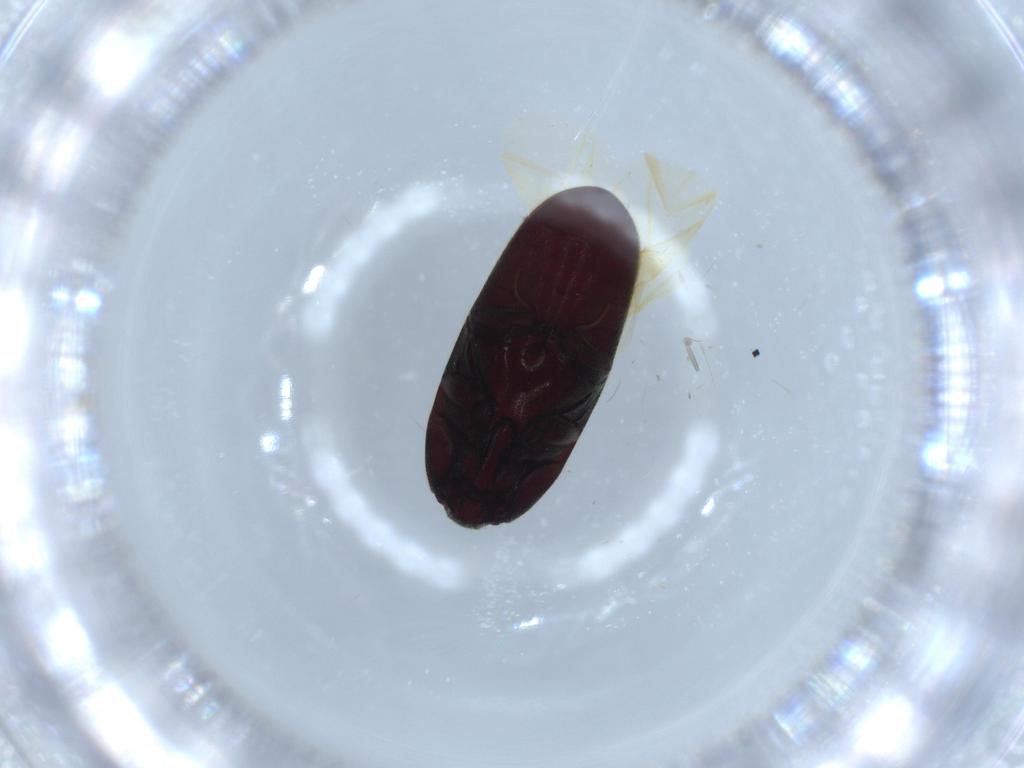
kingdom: Animalia
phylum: Arthropoda
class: Insecta
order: Coleoptera
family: Throscidae
